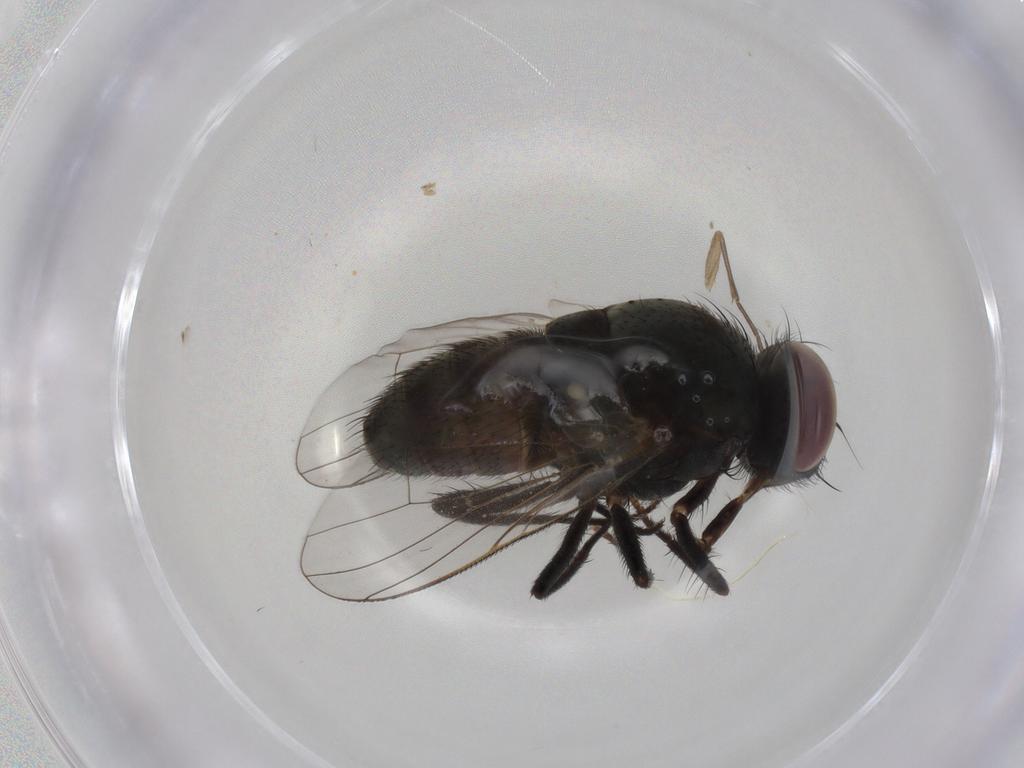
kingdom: Animalia
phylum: Arthropoda
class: Insecta
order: Diptera
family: Muscidae
